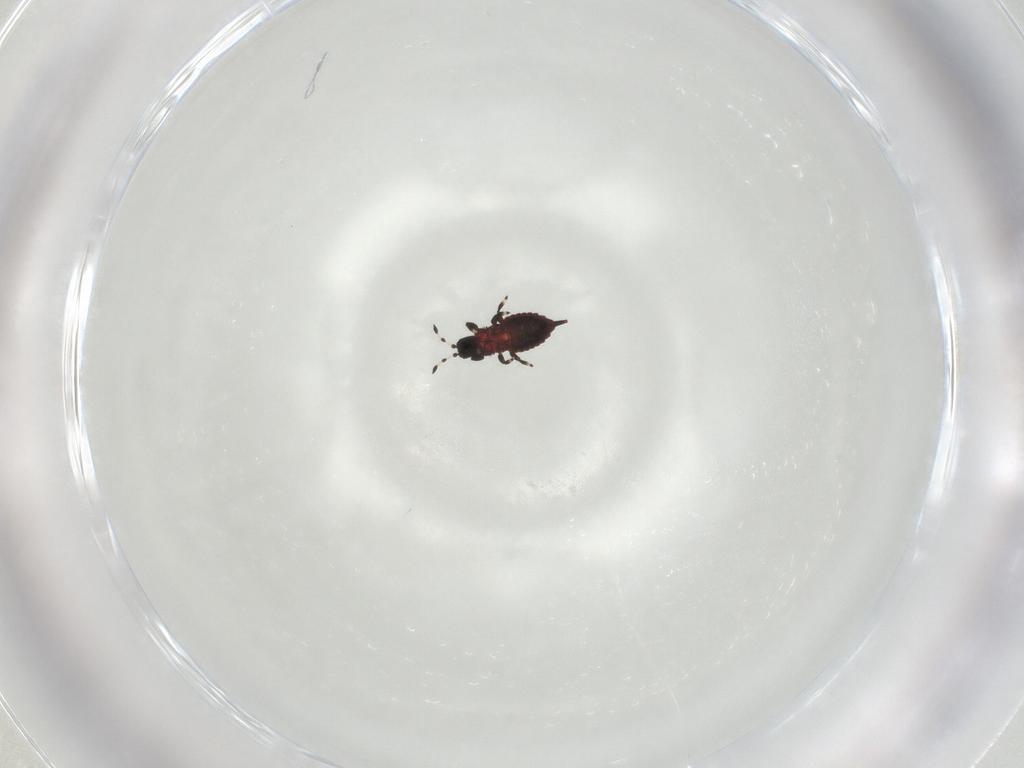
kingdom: Animalia
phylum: Arthropoda
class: Insecta
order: Thysanoptera
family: Phlaeothripidae
